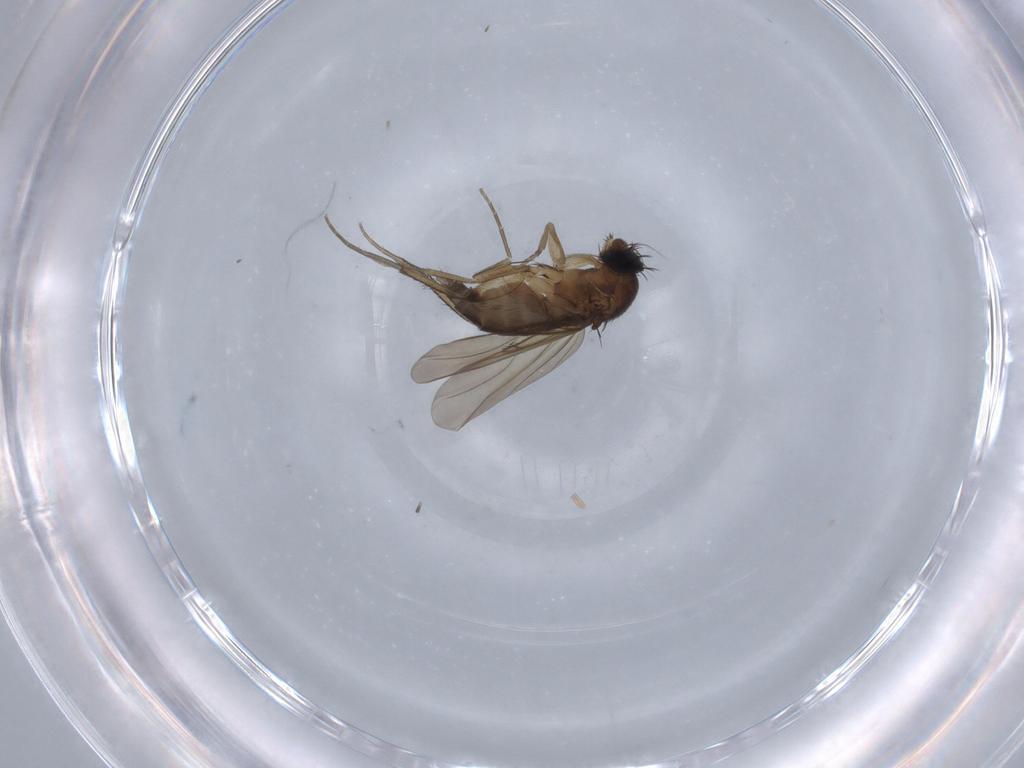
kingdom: Animalia
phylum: Arthropoda
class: Insecta
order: Diptera
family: Phoridae
